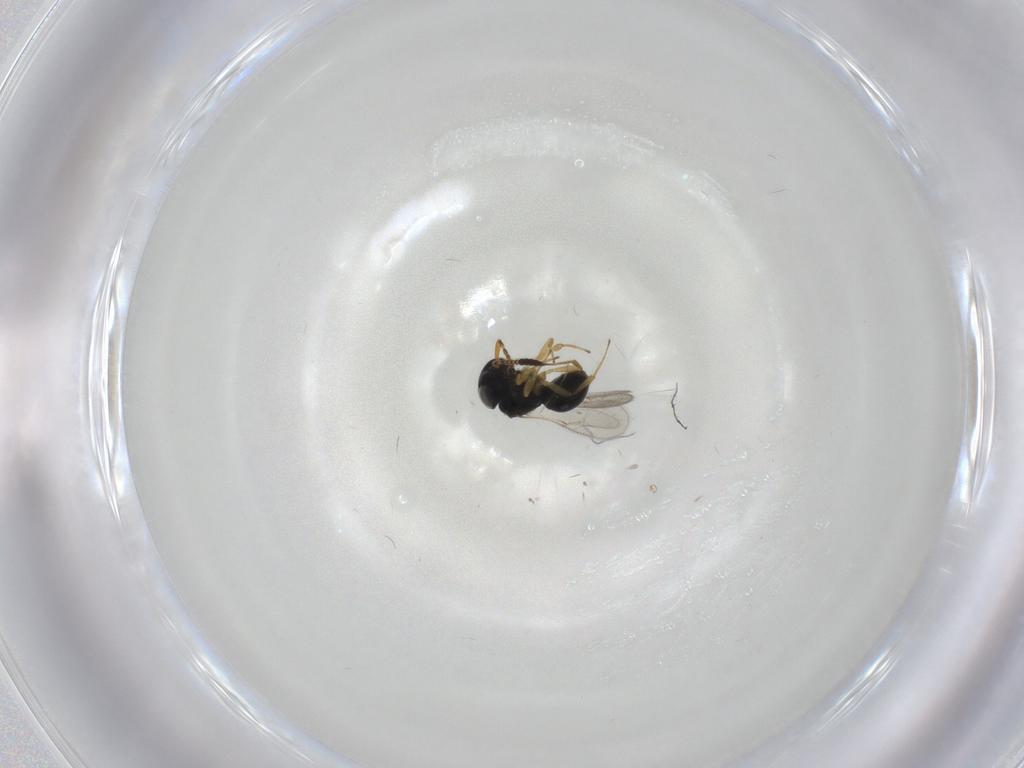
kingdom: Animalia
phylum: Arthropoda
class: Insecta
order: Hymenoptera
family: Scelionidae
